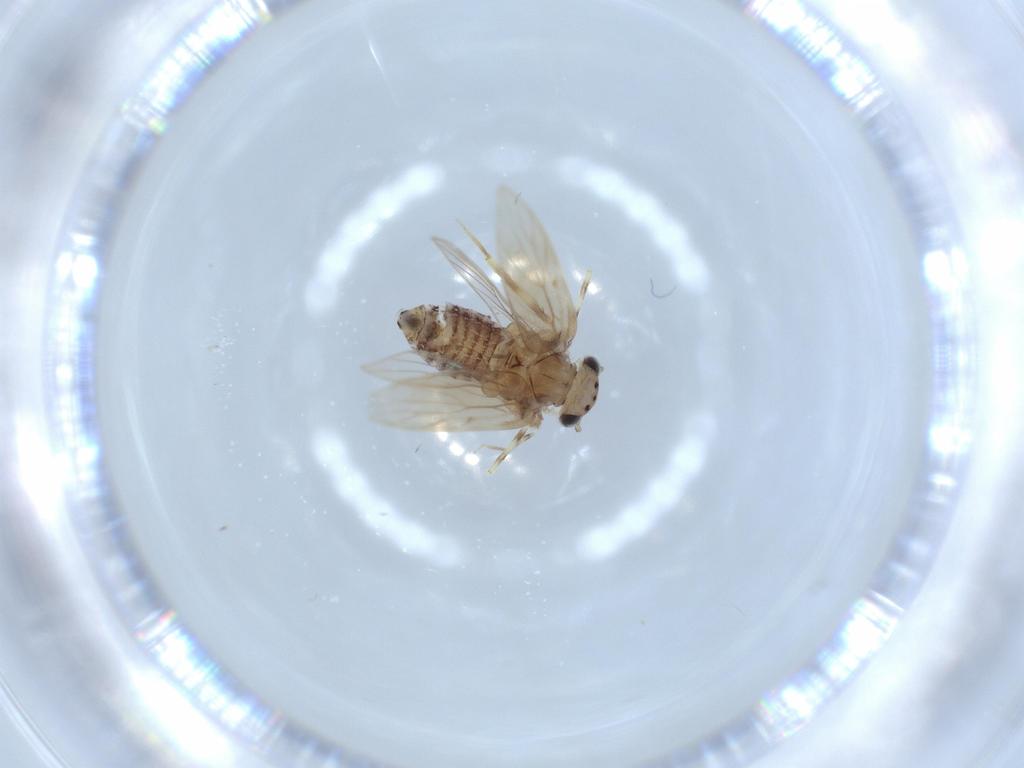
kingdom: Animalia
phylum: Arthropoda
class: Insecta
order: Psocodea
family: Lepidopsocidae
